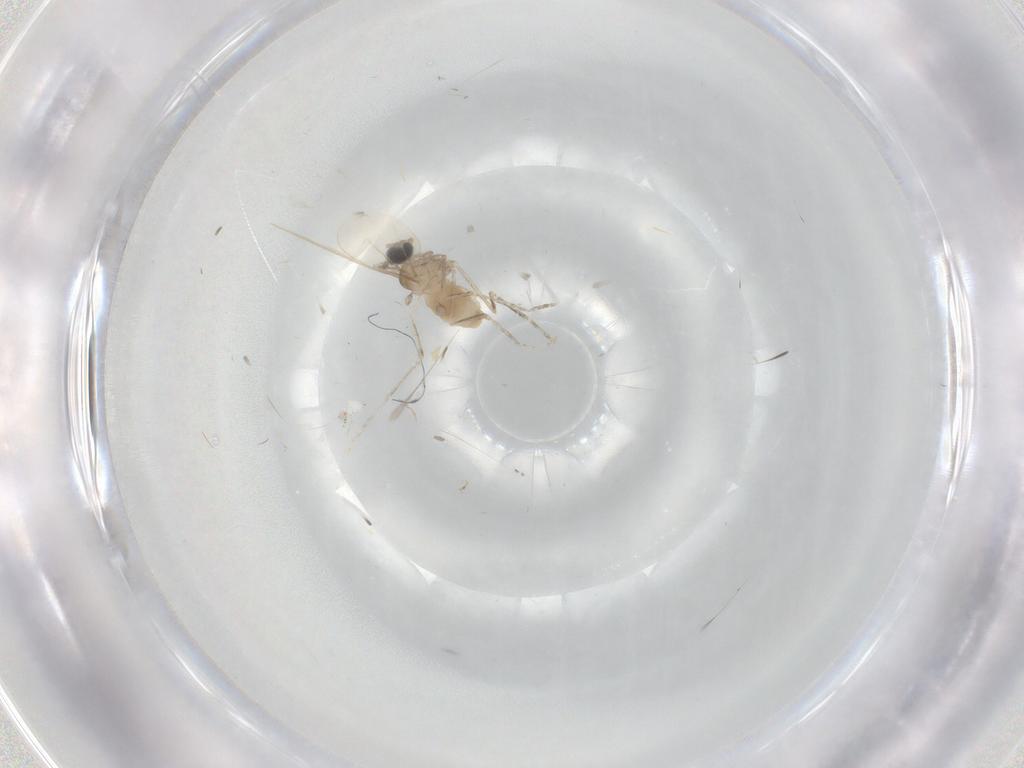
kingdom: Animalia
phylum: Arthropoda
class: Insecta
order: Diptera
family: Cecidomyiidae
